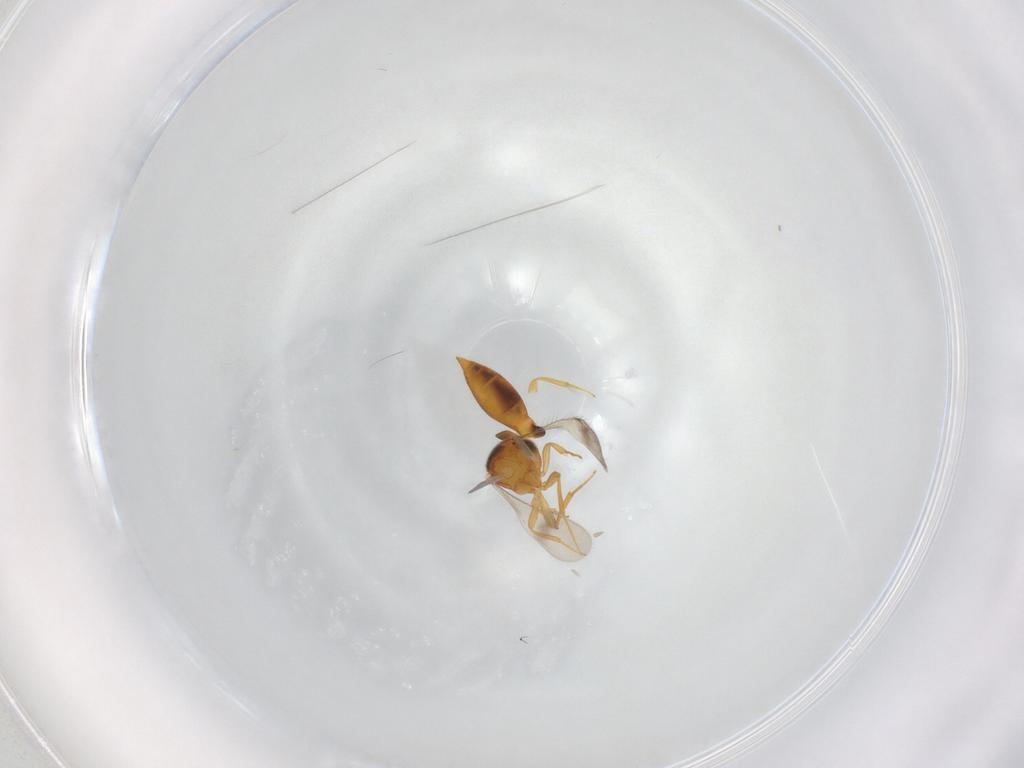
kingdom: Animalia
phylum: Arthropoda
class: Insecta
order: Hymenoptera
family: Scelionidae
